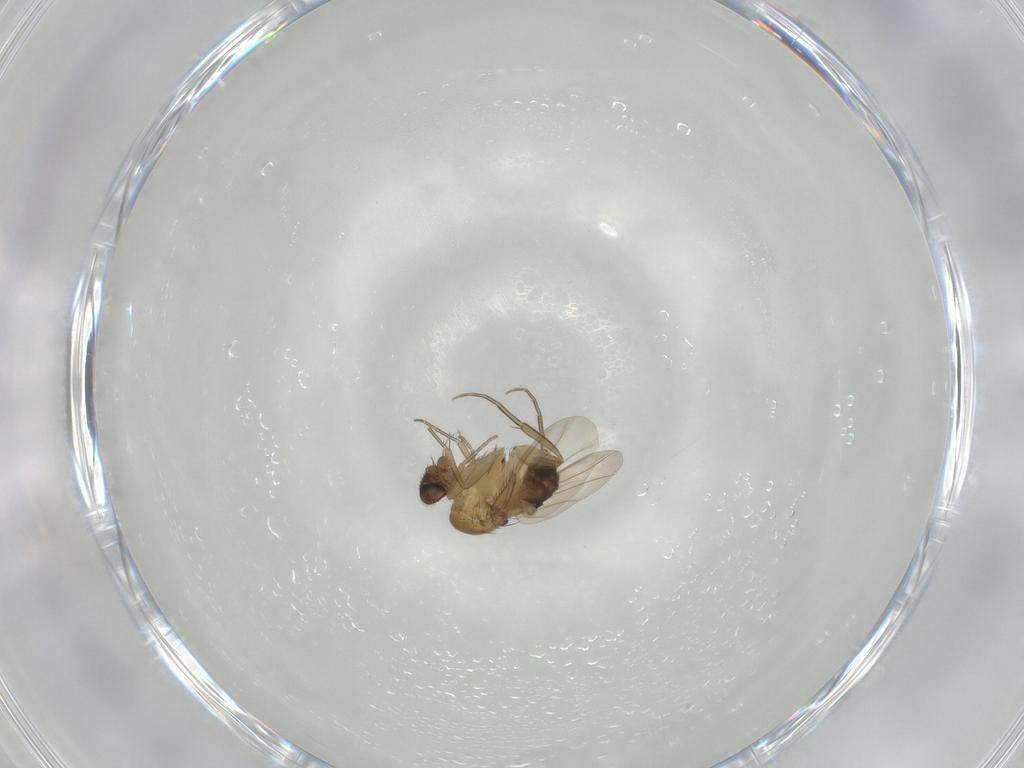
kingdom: Animalia
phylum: Arthropoda
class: Insecta
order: Diptera
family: Phoridae
